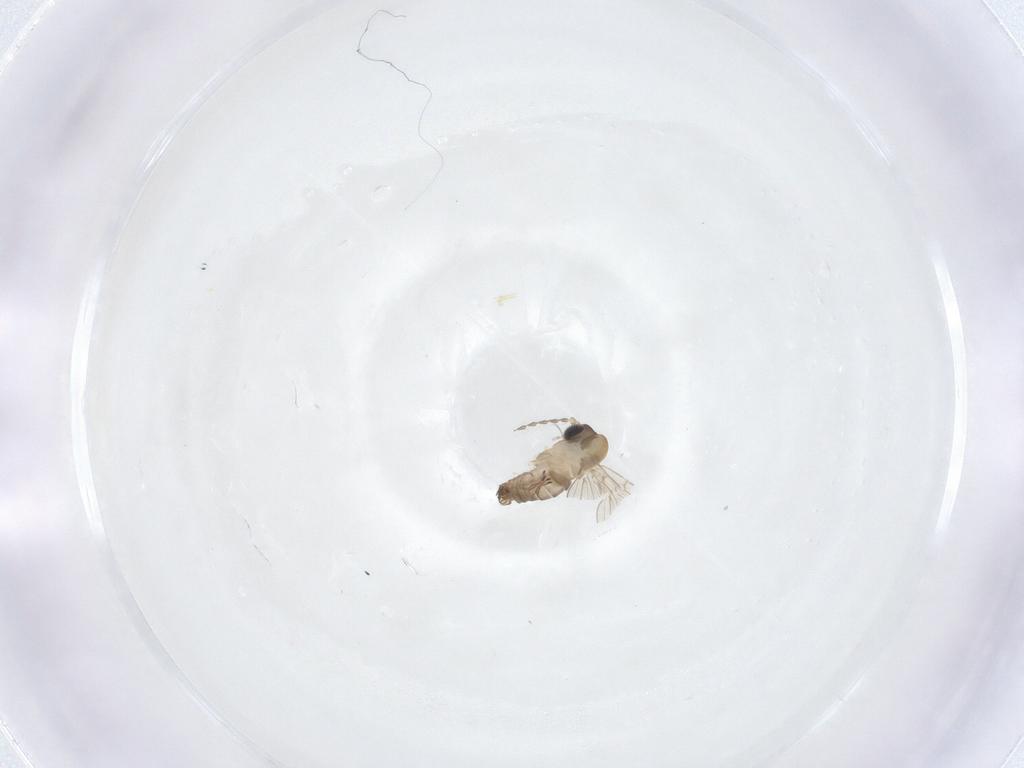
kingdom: Animalia
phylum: Arthropoda
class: Insecta
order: Diptera
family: Psychodidae
